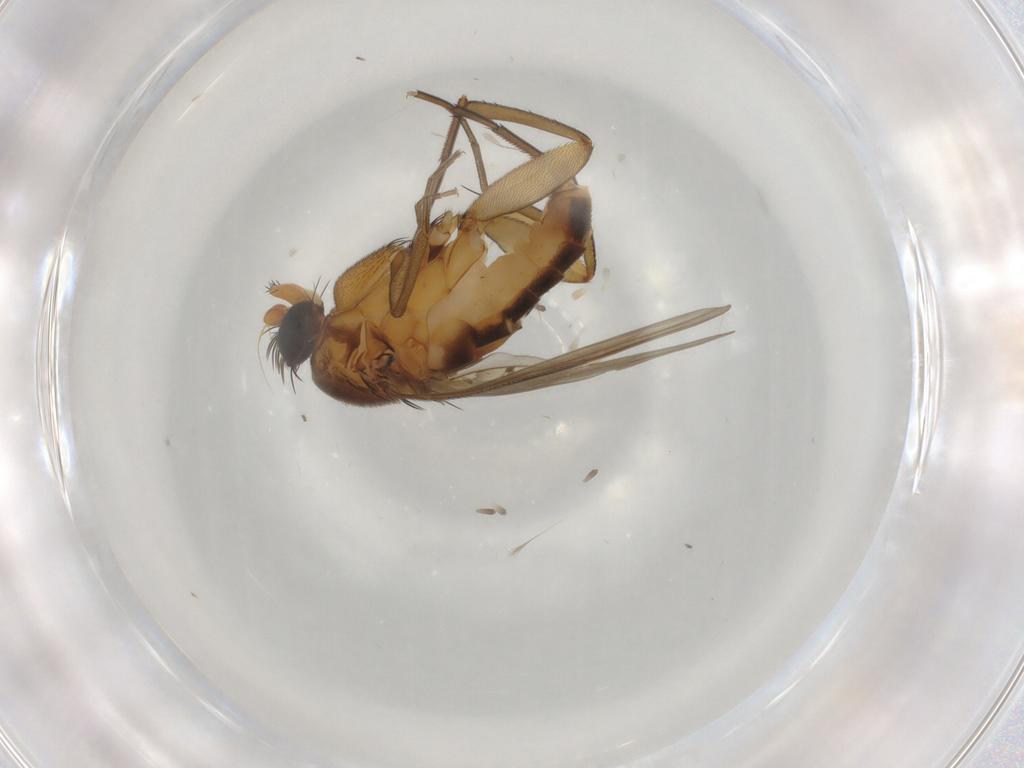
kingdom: Animalia
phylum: Arthropoda
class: Insecta
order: Diptera
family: Phoridae
